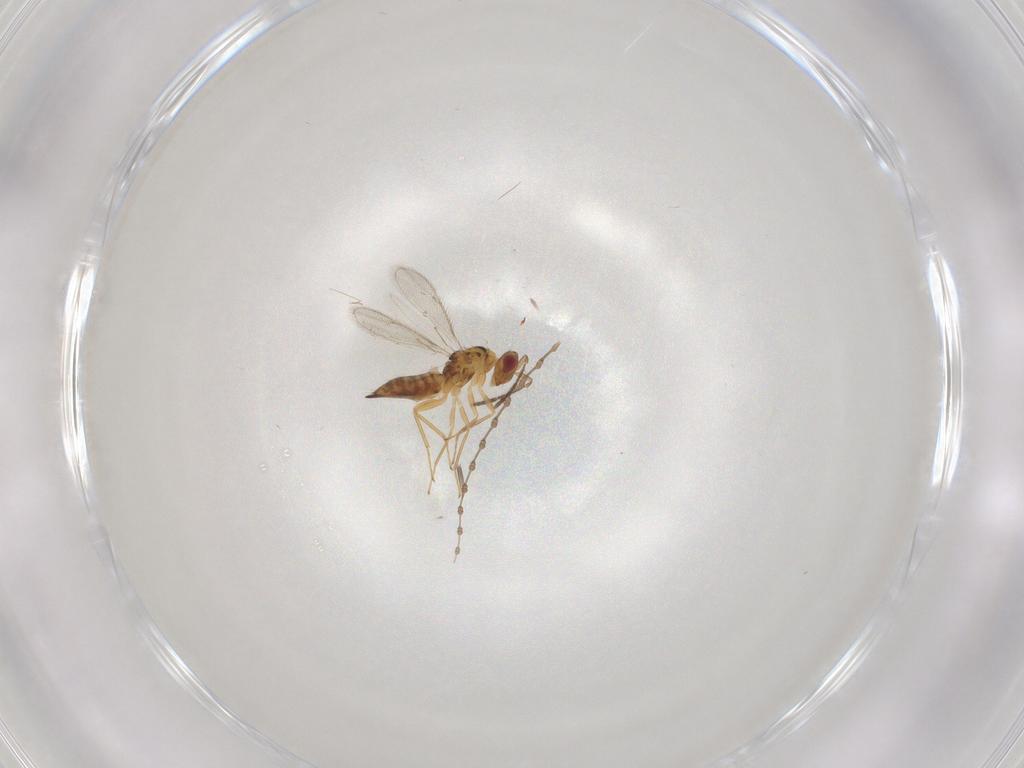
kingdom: Animalia
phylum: Arthropoda
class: Insecta
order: Hymenoptera
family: Eulophidae
